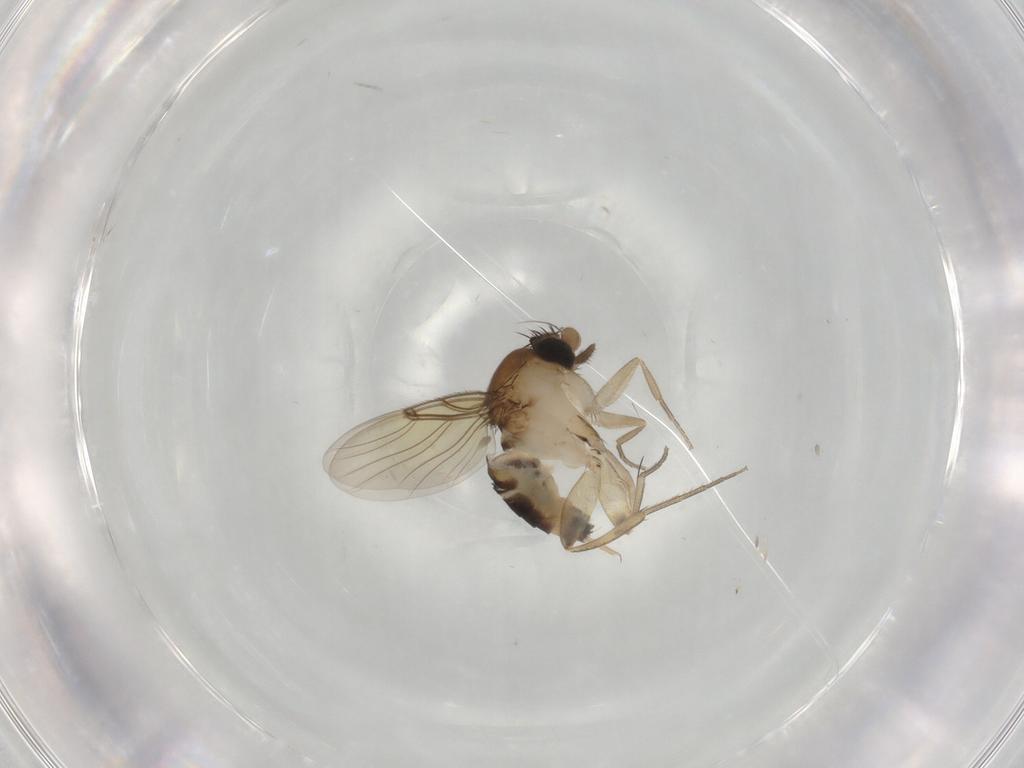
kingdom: Animalia
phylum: Arthropoda
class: Insecta
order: Diptera
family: Phoridae
